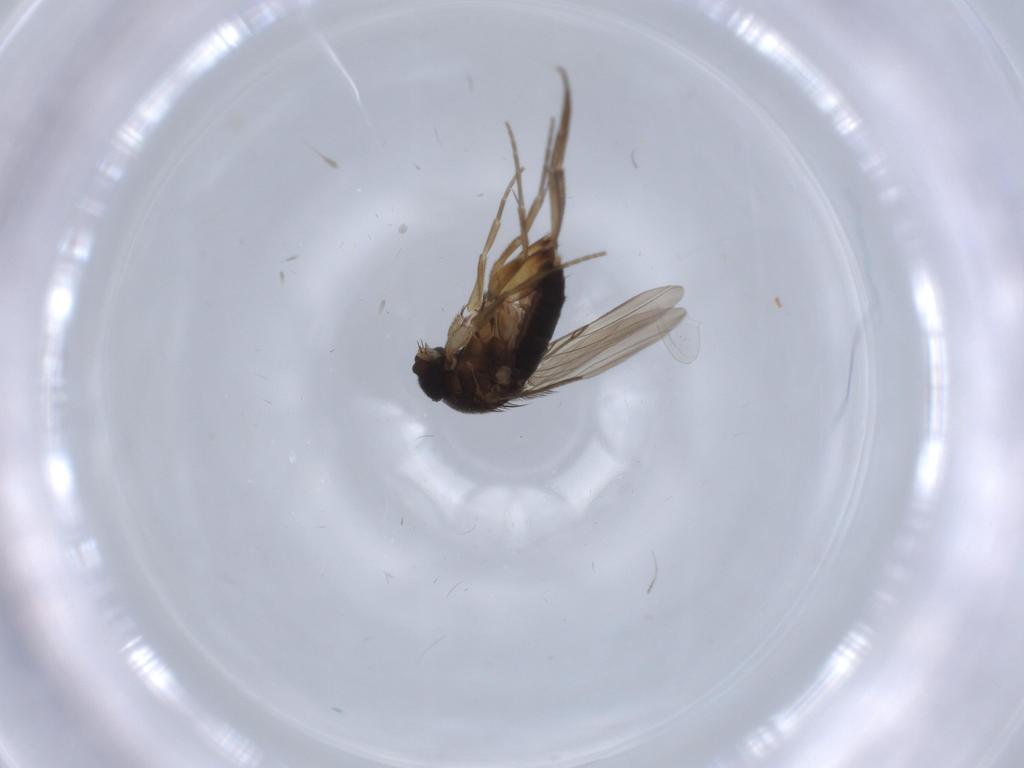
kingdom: Animalia
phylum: Arthropoda
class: Insecta
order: Diptera
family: Phoridae
